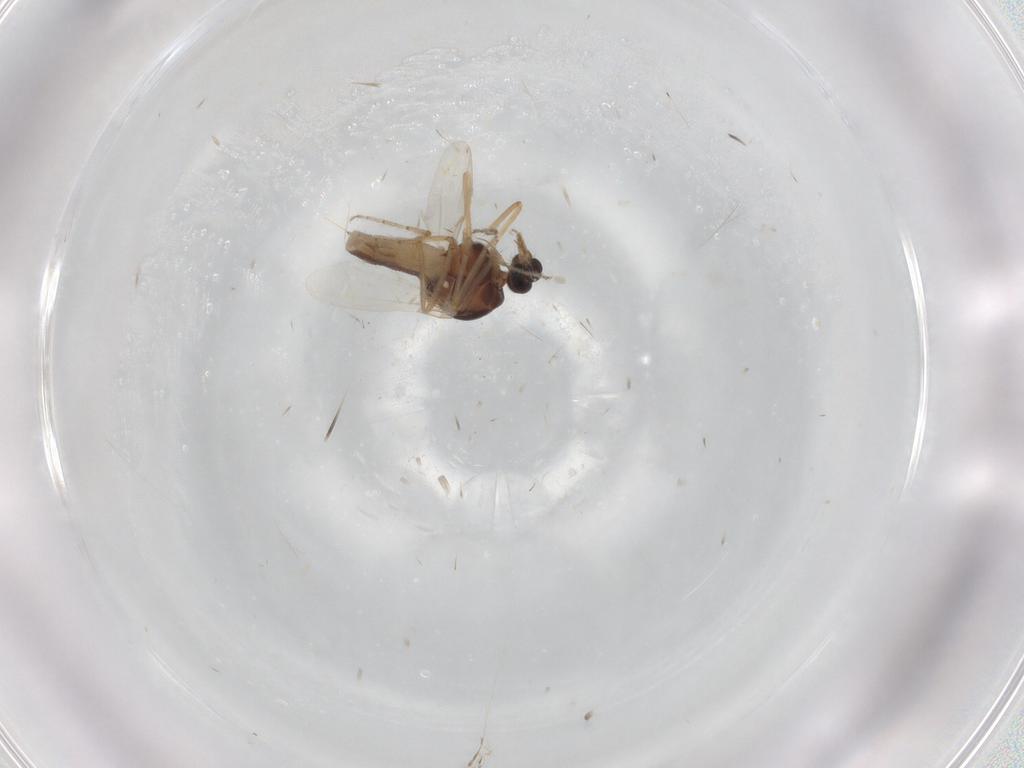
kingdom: Animalia
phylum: Arthropoda
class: Insecta
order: Diptera
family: Ceratopogonidae
